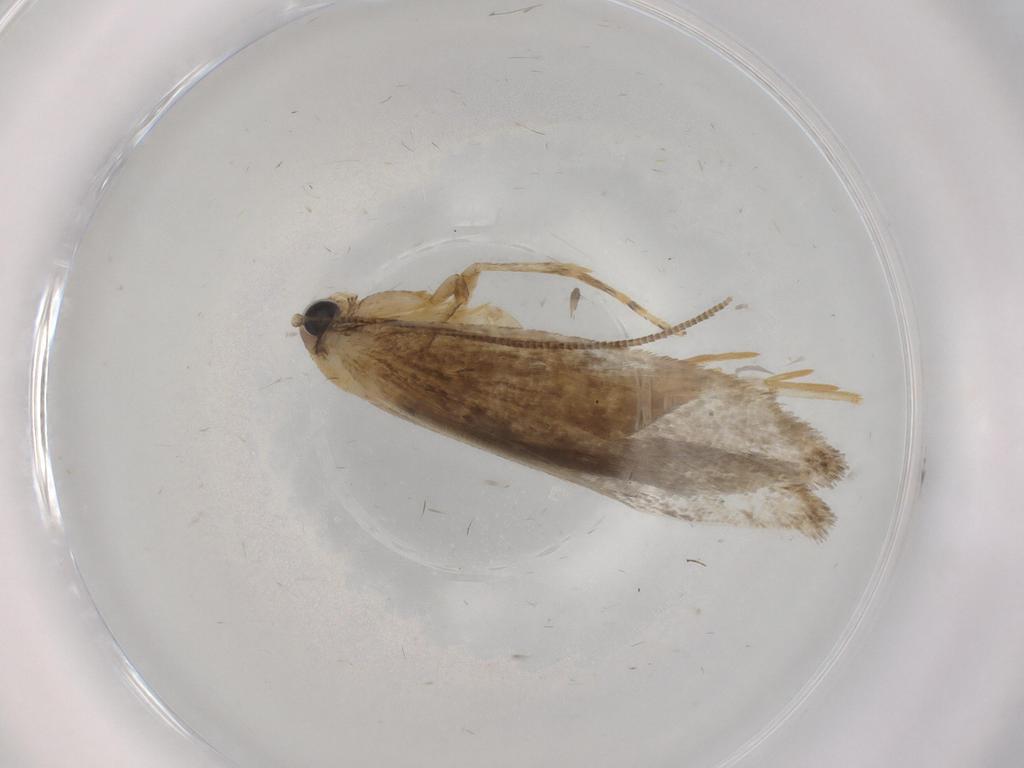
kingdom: Animalia
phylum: Arthropoda
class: Insecta
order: Lepidoptera
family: Tineidae
